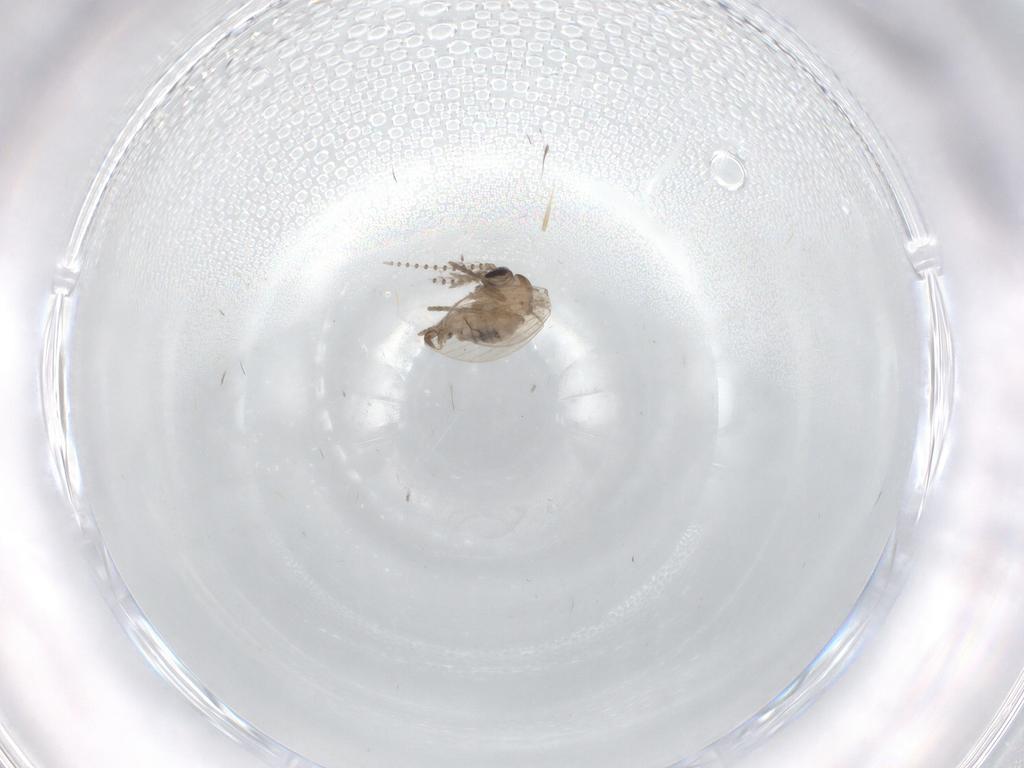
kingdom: Animalia
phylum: Arthropoda
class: Insecta
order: Diptera
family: Psychodidae
